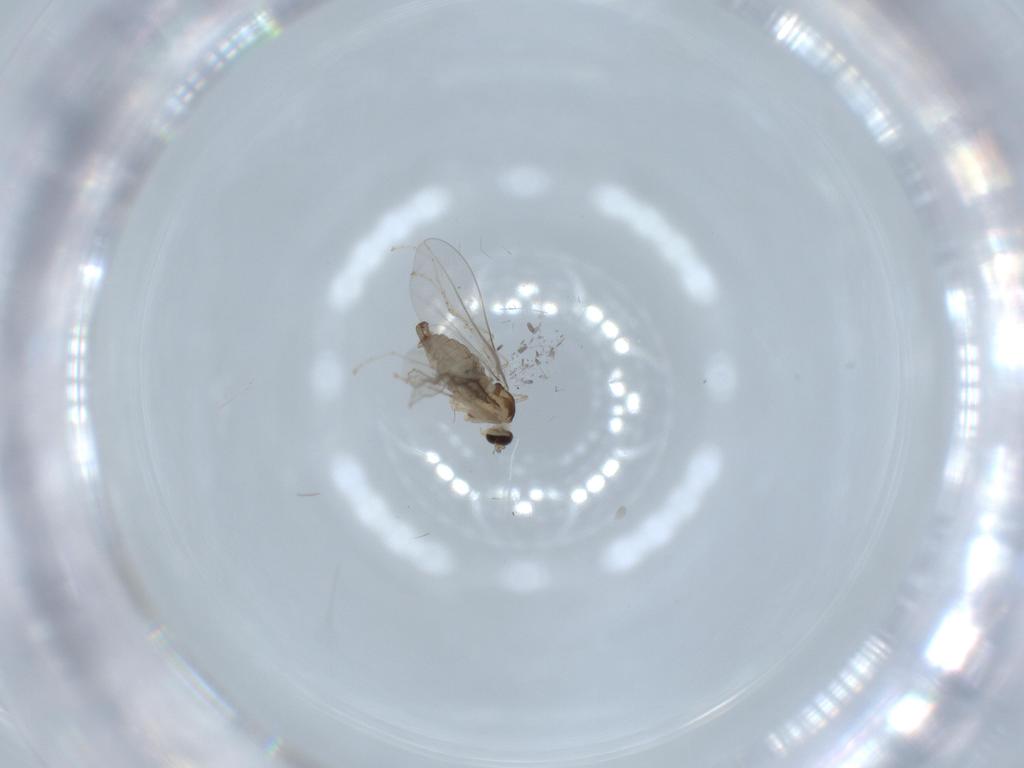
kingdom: Animalia
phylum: Arthropoda
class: Insecta
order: Diptera
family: Cecidomyiidae
